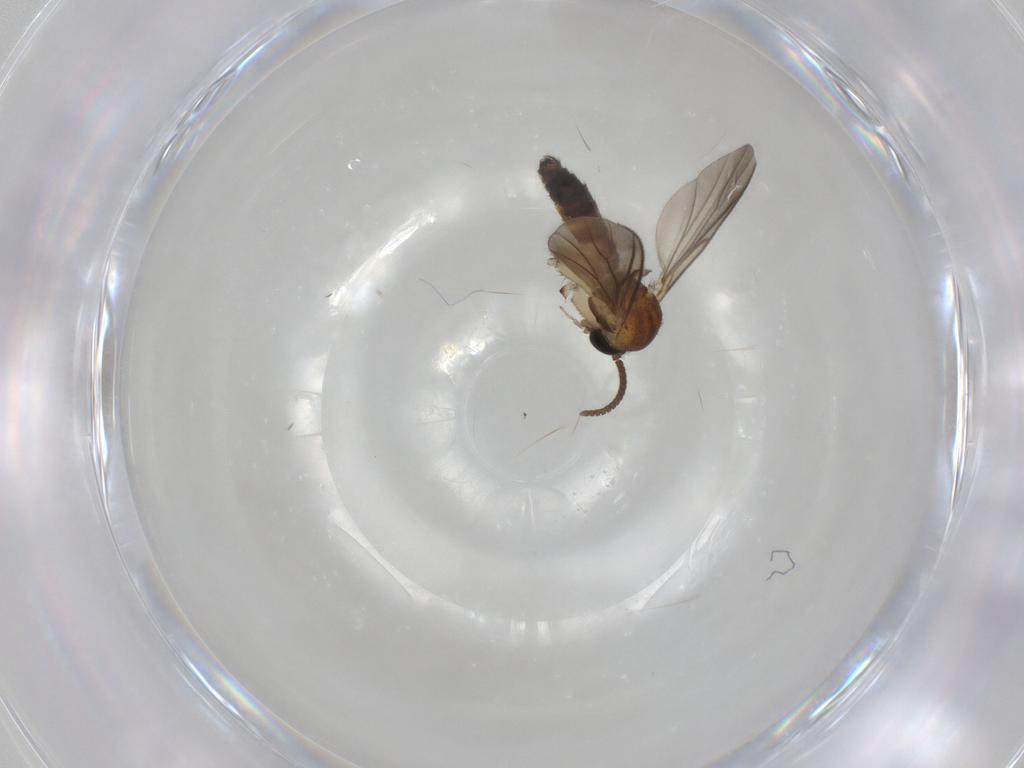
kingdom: Animalia
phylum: Arthropoda
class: Insecta
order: Diptera
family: Mycetophilidae
